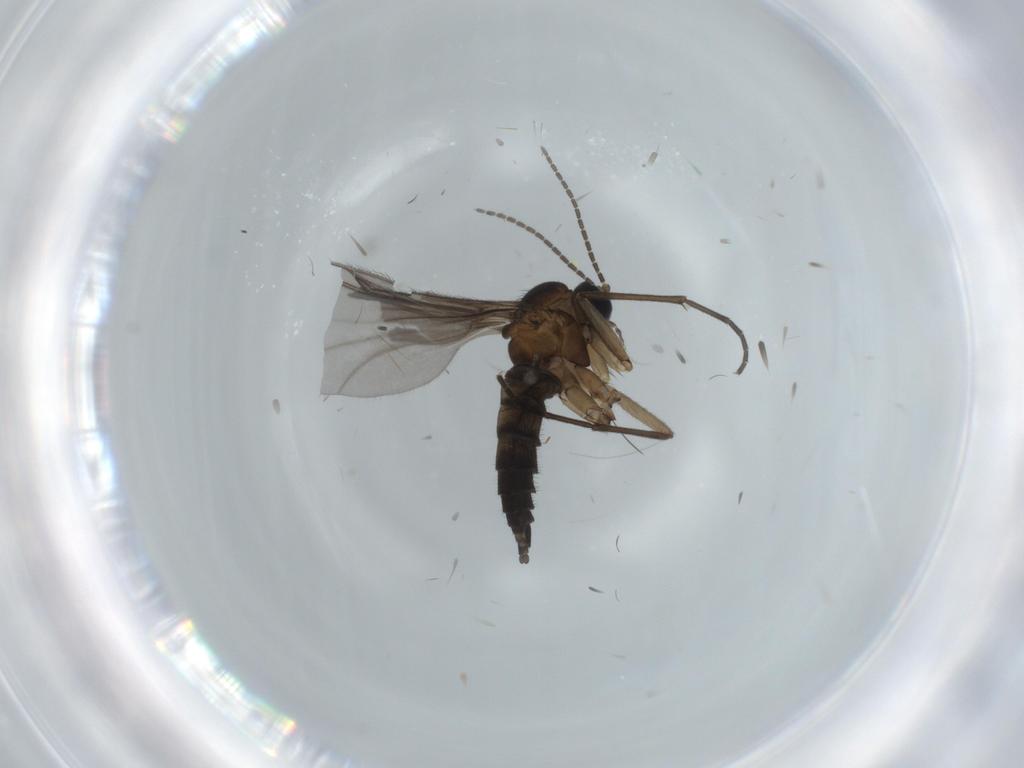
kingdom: Animalia
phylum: Arthropoda
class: Insecta
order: Diptera
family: Sciaridae
